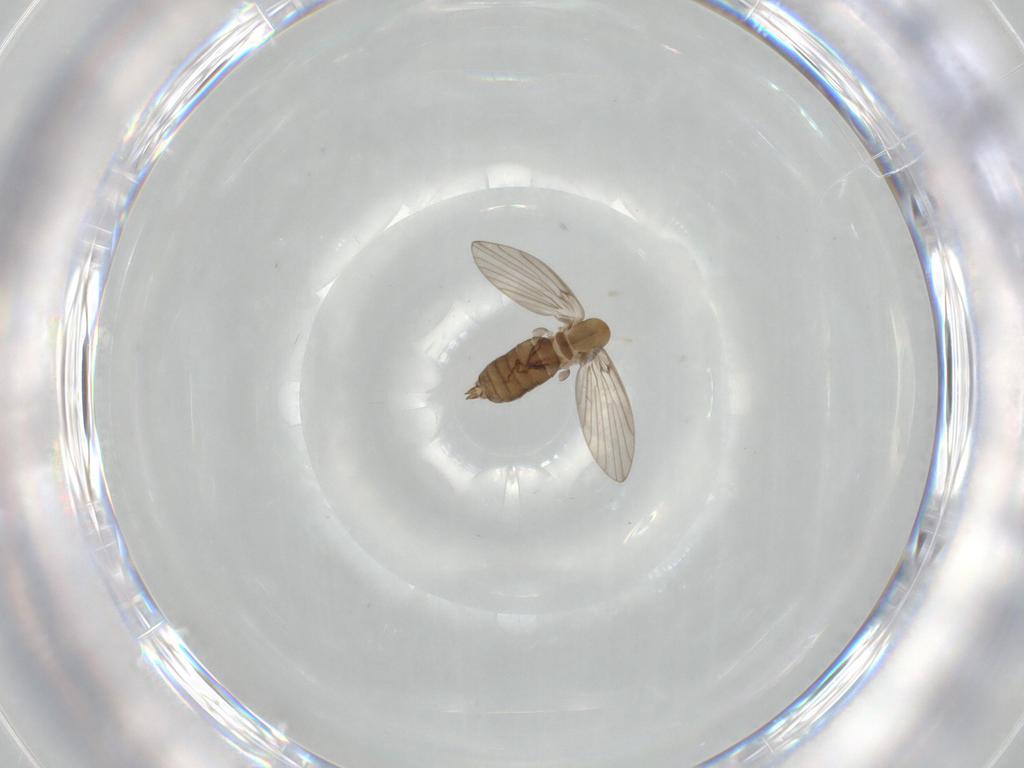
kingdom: Animalia
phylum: Arthropoda
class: Insecta
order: Diptera
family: Psychodidae
